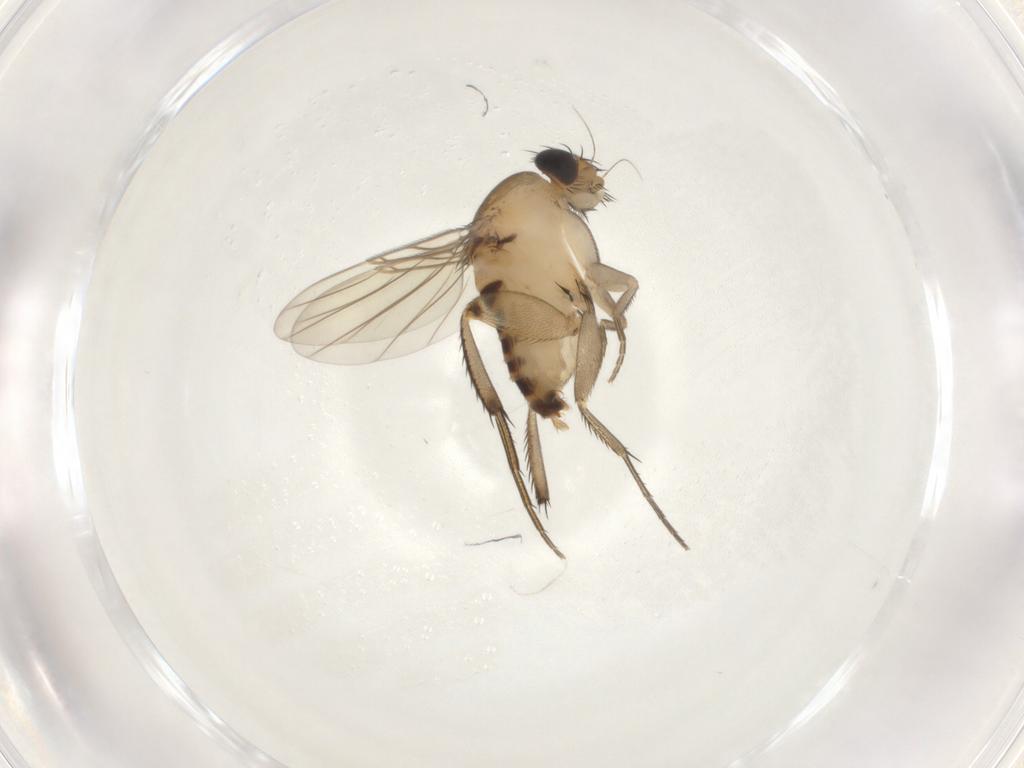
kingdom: Animalia
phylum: Arthropoda
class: Insecta
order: Diptera
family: Phoridae
